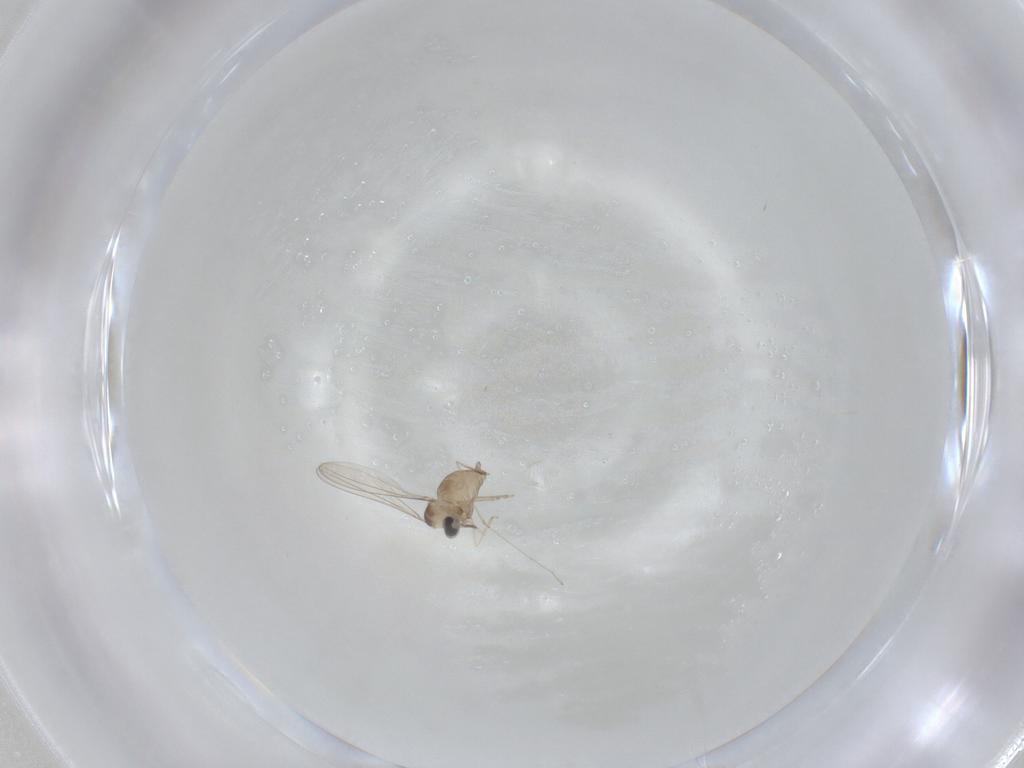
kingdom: Animalia
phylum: Arthropoda
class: Insecta
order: Diptera
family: Cecidomyiidae
